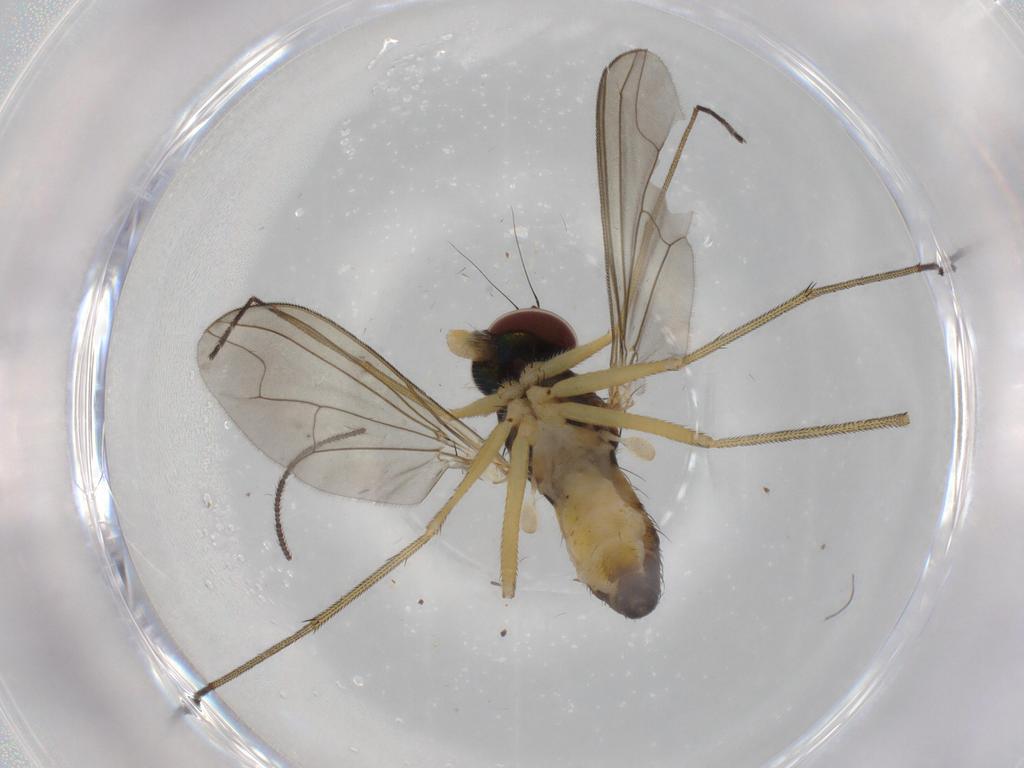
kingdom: Animalia
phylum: Arthropoda
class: Insecta
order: Diptera
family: Dolichopodidae
